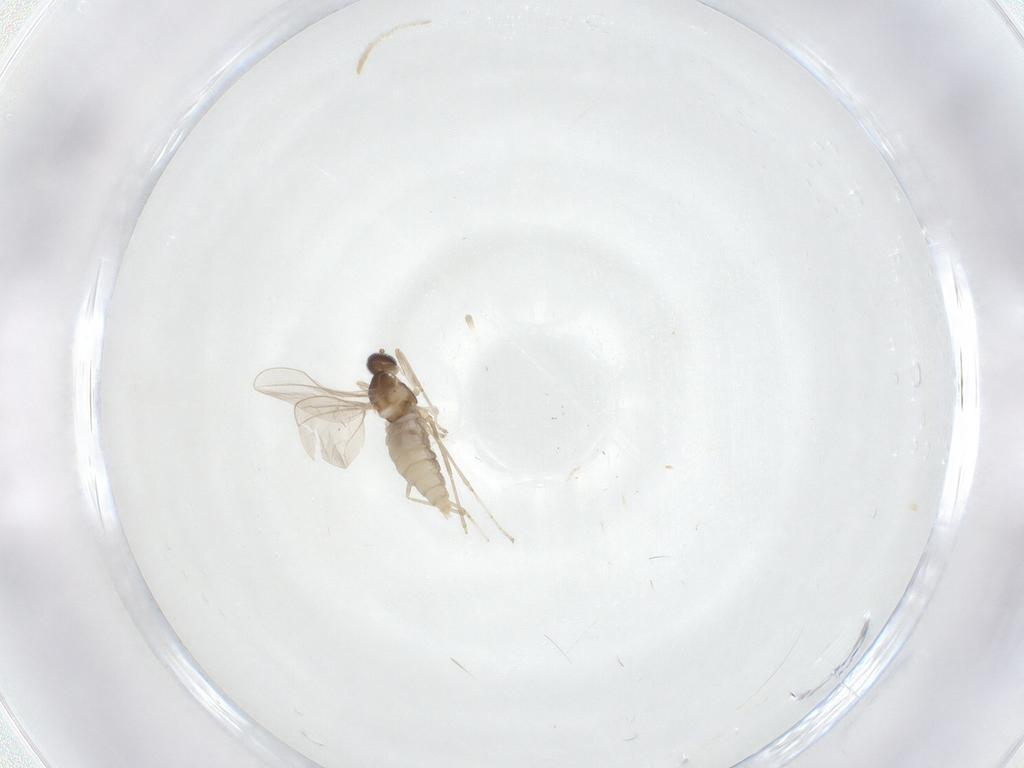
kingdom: Animalia
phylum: Arthropoda
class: Insecta
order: Diptera
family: Cecidomyiidae
